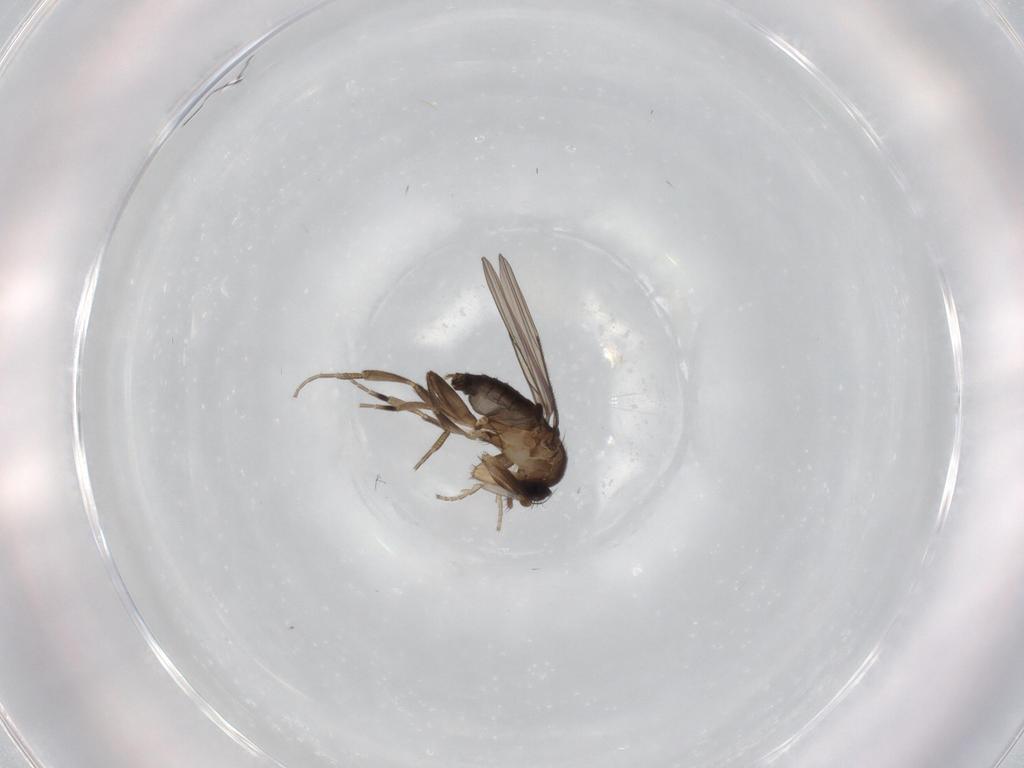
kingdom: Animalia
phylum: Arthropoda
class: Insecta
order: Diptera
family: Ceratopogonidae
